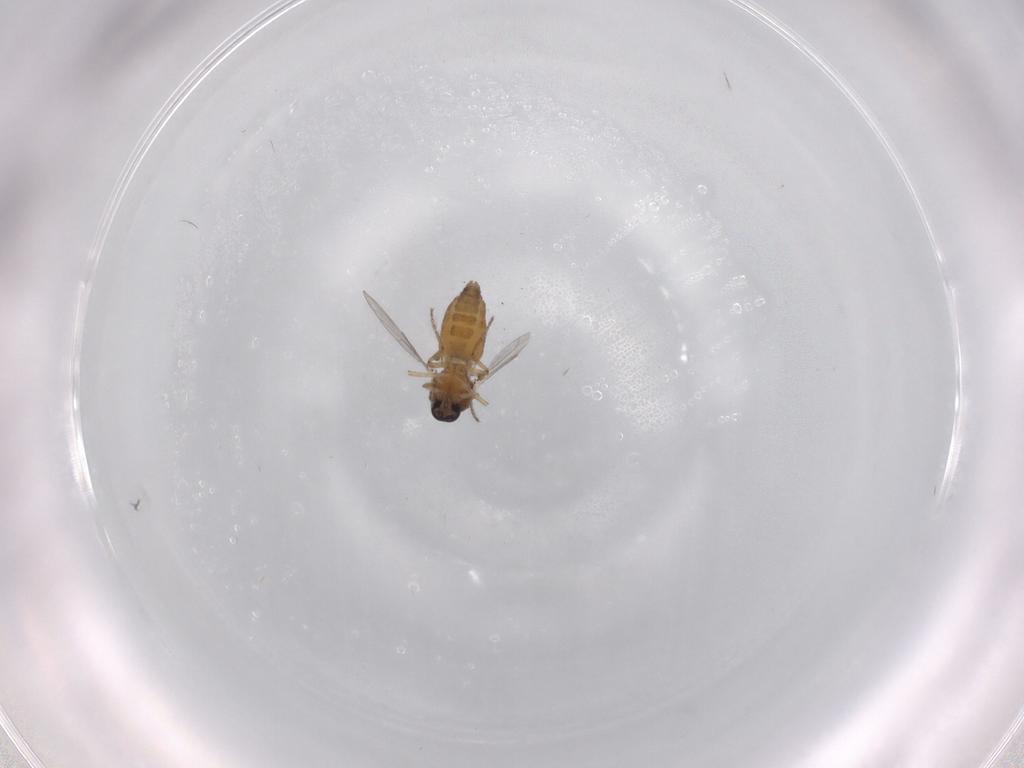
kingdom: Animalia
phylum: Arthropoda
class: Insecta
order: Diptera
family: Ceratopogonidae
